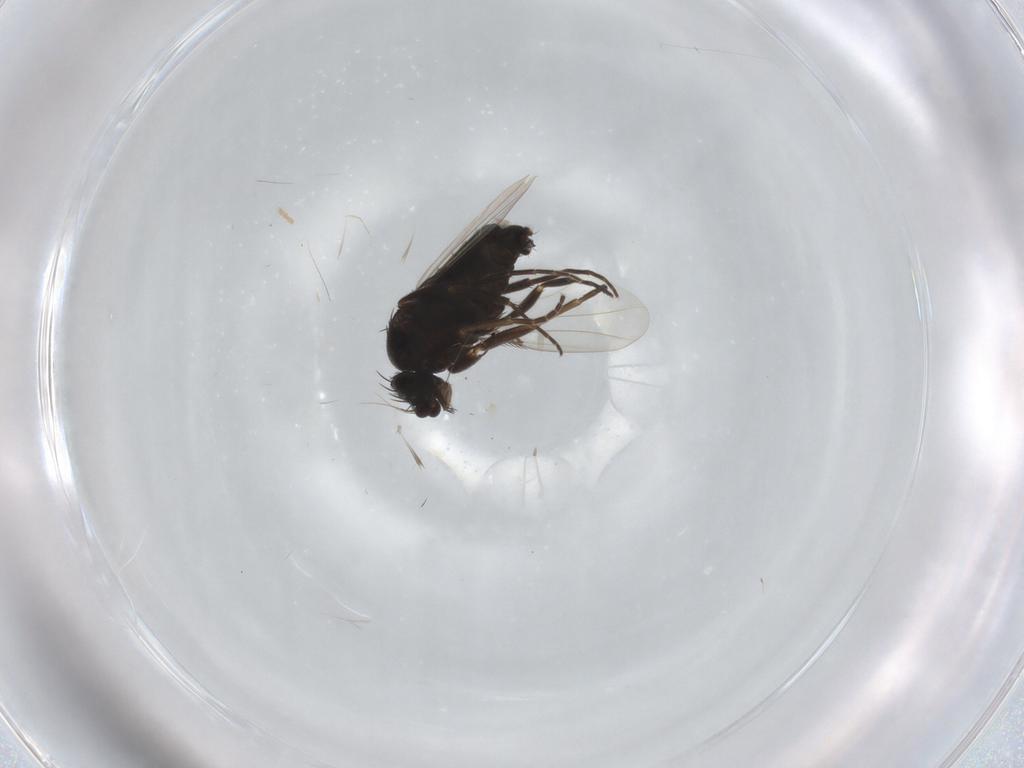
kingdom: Animalia
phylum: Arthropoda
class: Insecta
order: Diptera
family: Phoridae
